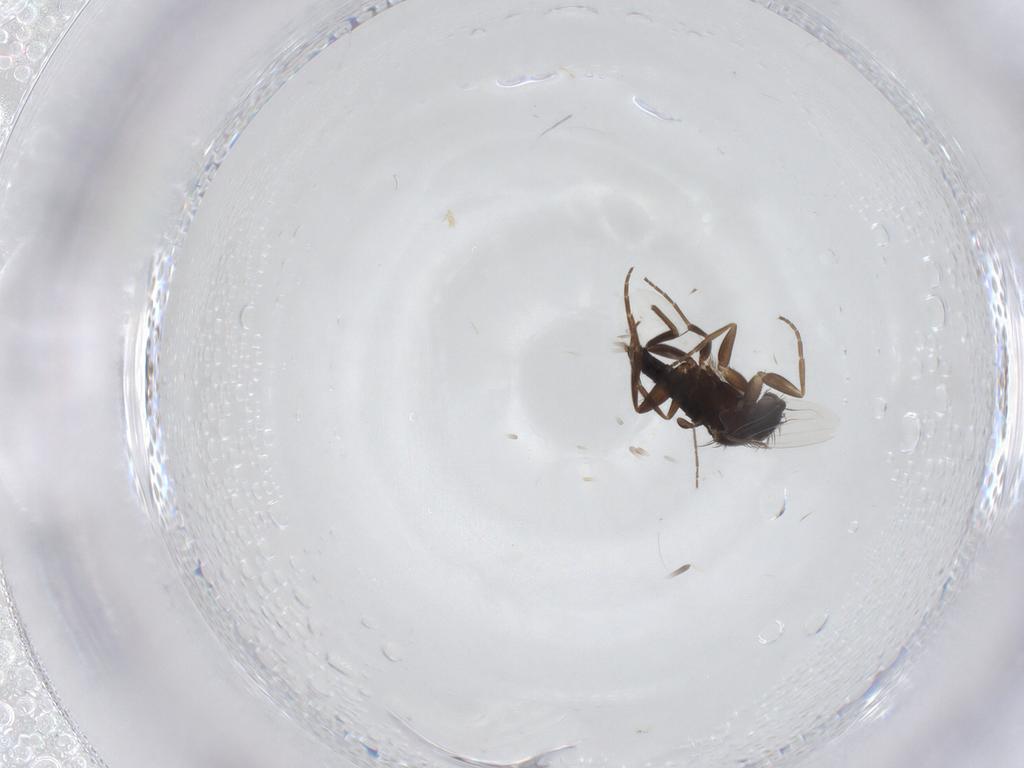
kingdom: Animalia
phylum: Arthropoda
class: Insecta
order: Diptera
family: Phoridae
